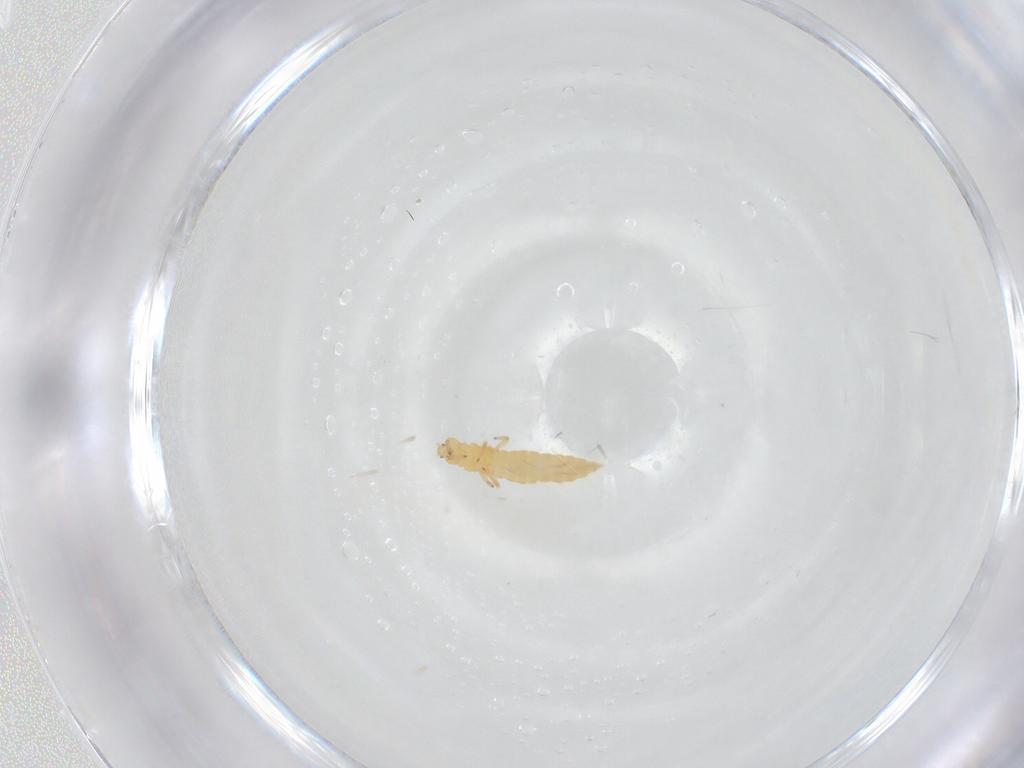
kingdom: Animalia
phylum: Arthropoda
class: Insecta
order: Thysanoptera
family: Aeolothripidae
